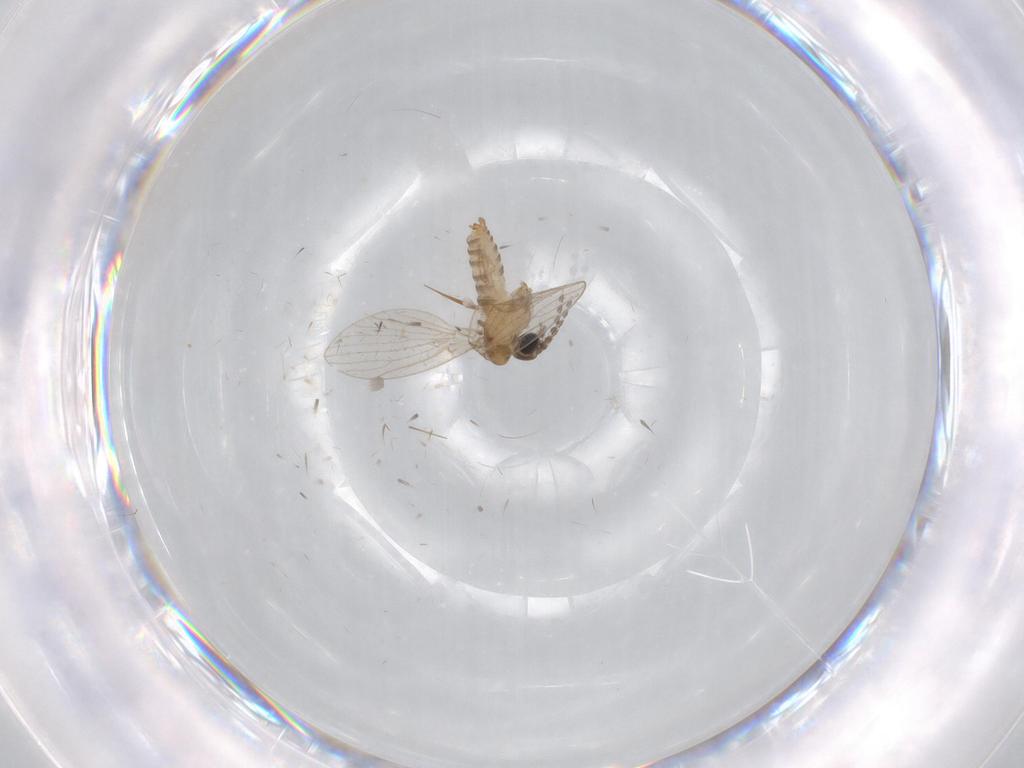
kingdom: Animalia
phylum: Arthropoda
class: Insecta
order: Diptera
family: Psychodidae
